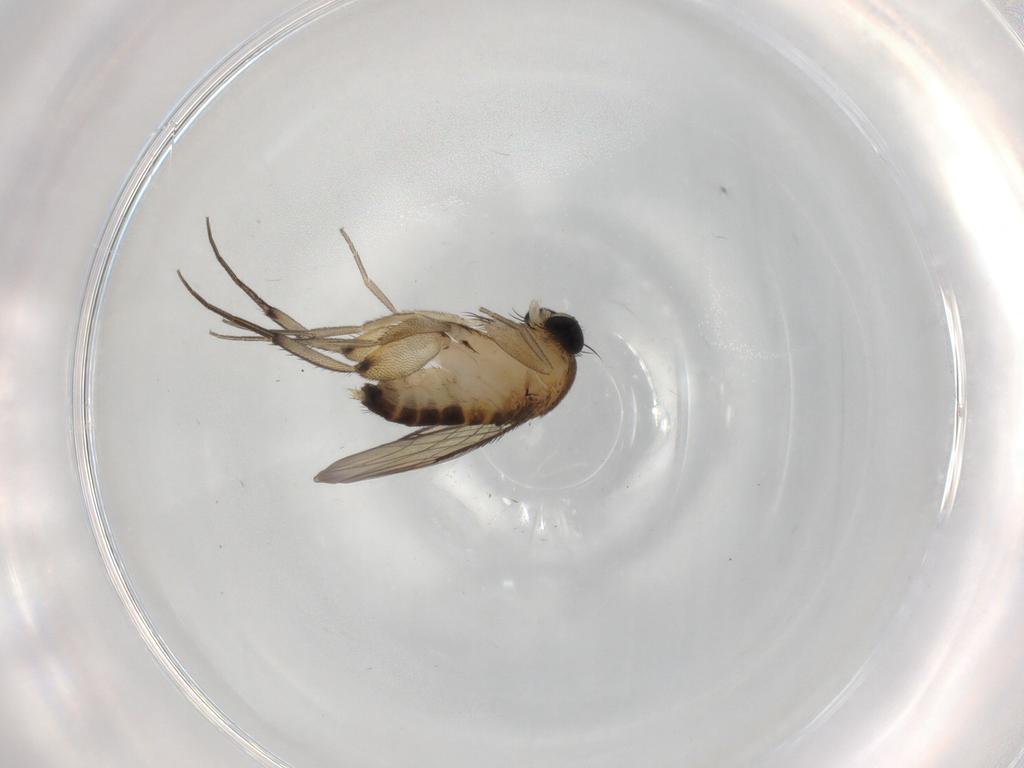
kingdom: Animalia
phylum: Arthropoda
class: Insecta
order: Diptera
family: Phoridae
